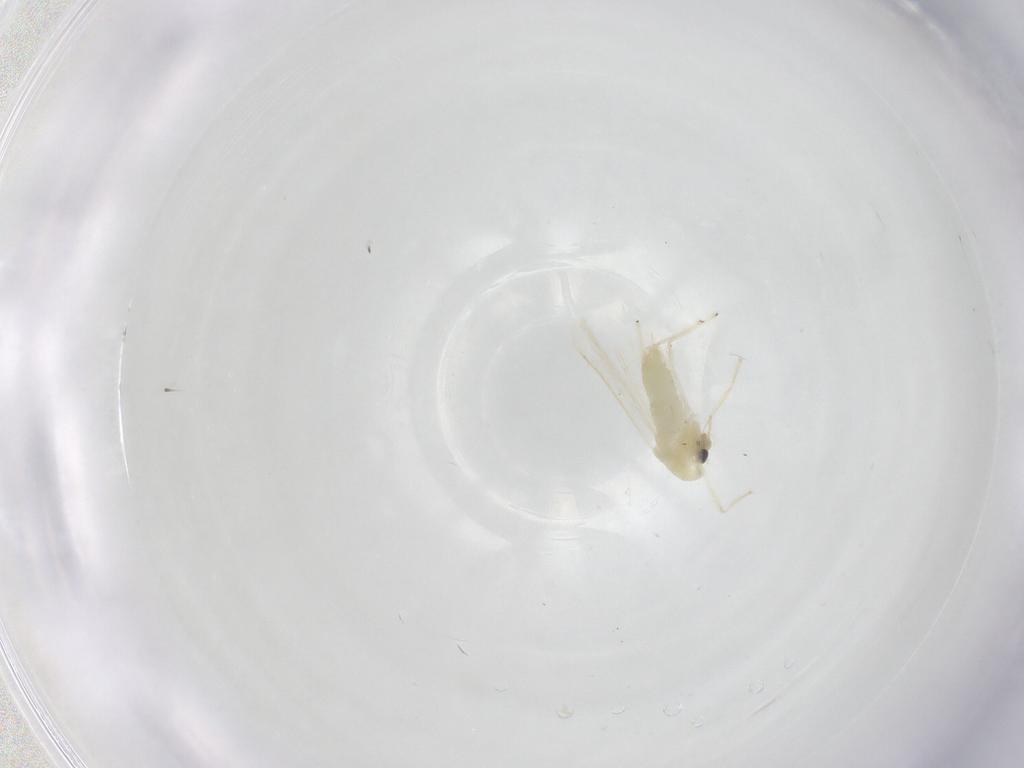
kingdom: Animalia
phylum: Arthropoda
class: Insecta
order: Diptera
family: Chironomidae
